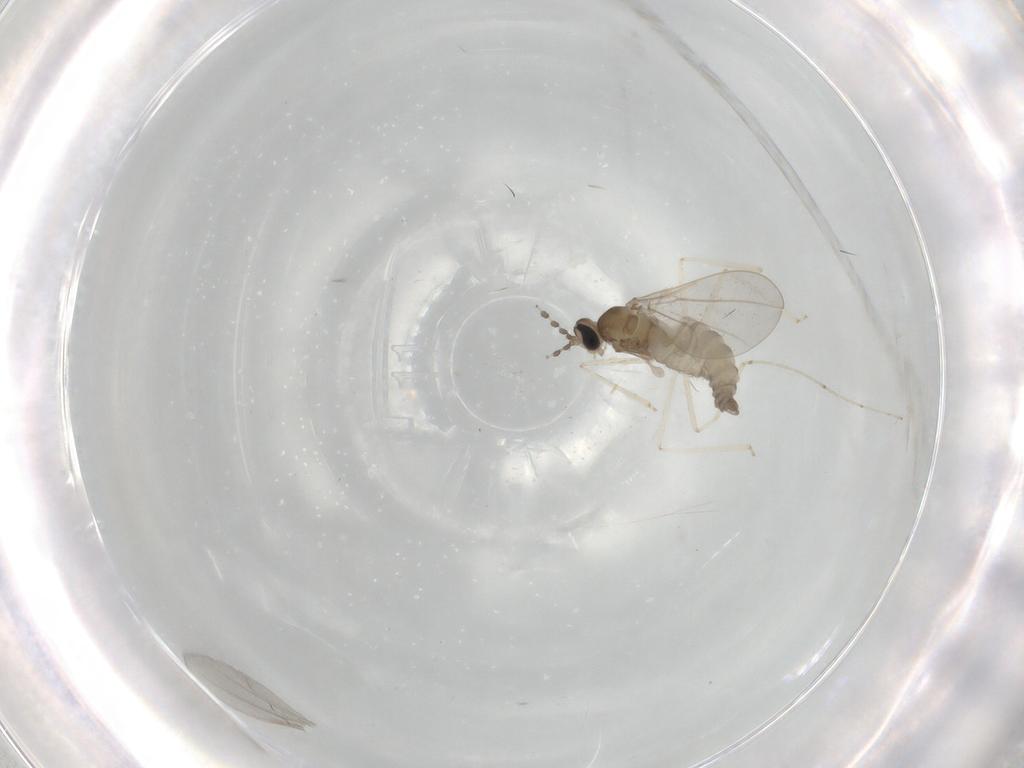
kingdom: Animalia
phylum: Arthropoda
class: Insecta
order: Diptera
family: Cecidomyiidae
